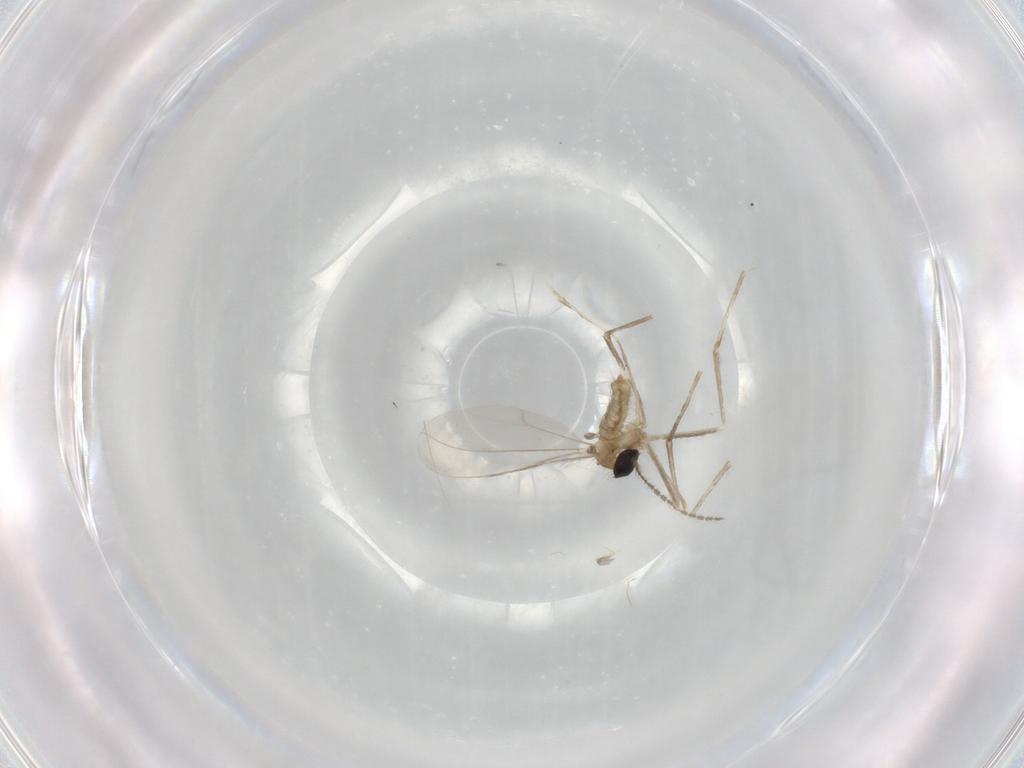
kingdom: Animalia
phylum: Arthropoda
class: Insecta
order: Diptera
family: Cecidomyiidae
